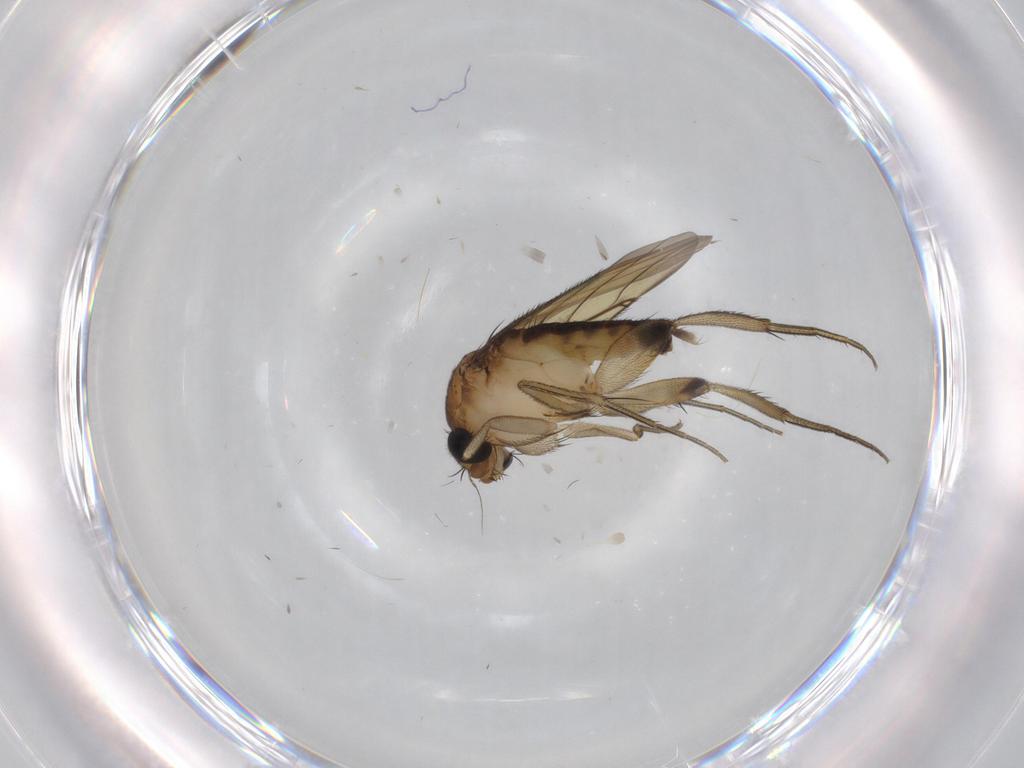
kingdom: Animalia
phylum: Arthropoda
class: Insecta
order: Diptera
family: Phoridae
